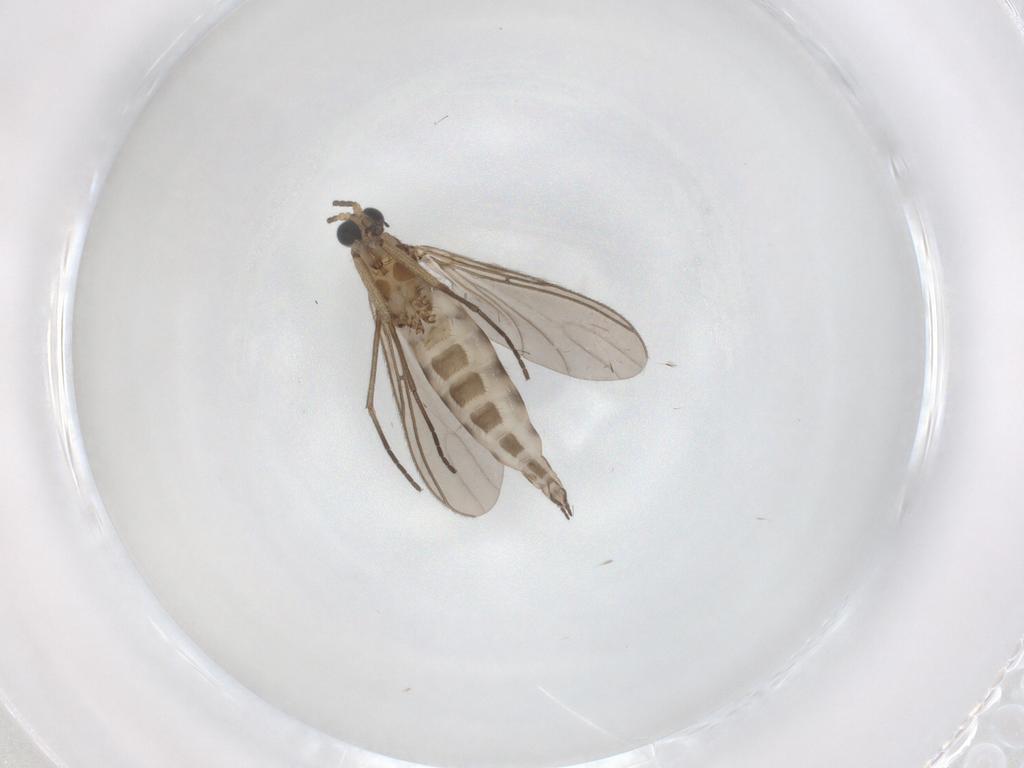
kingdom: Animalia
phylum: Arthropoda
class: Insecta
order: Diptera
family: Sciaridae
